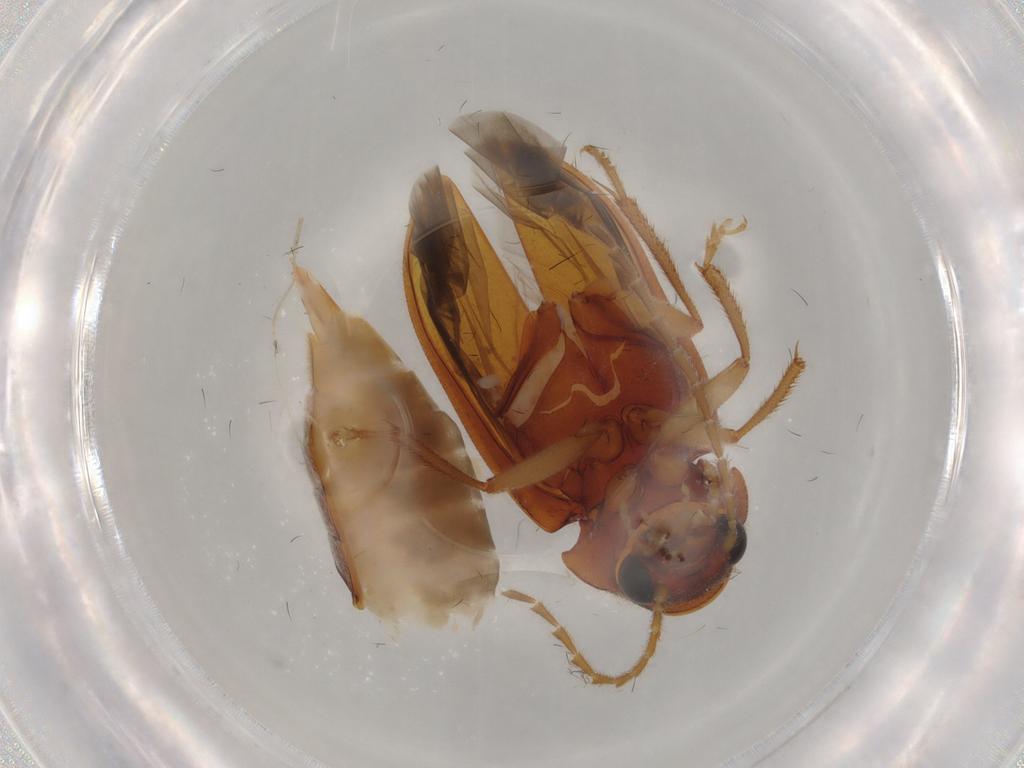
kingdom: Animalia
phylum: Arthropoda
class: Insecta
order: Coleoptera
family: Ptilodactylidae
